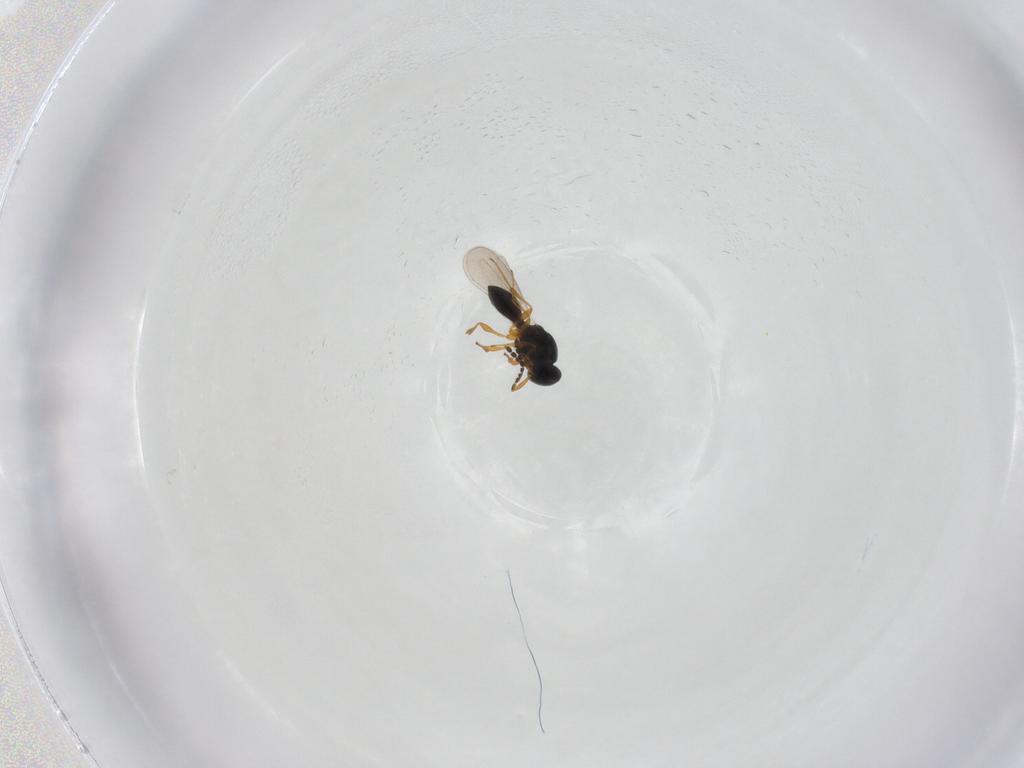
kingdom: Animalia
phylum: Arthropoda
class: Insecta
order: Hymenoptera
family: Platygastridae
